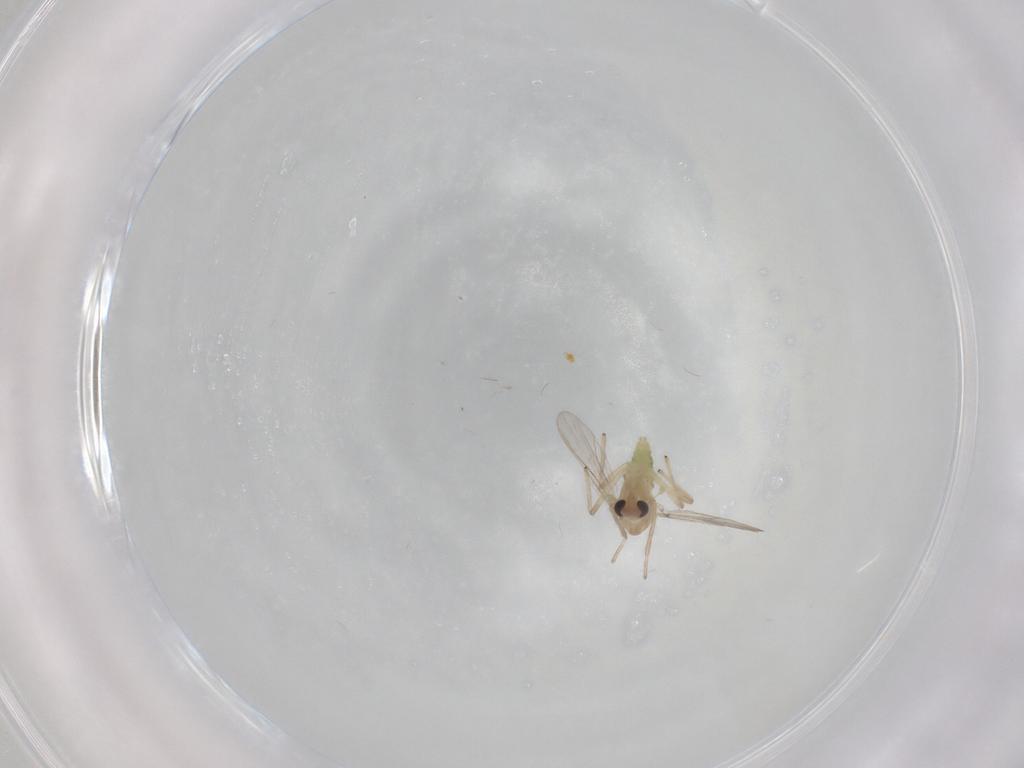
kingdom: Animalia
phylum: Arthropoda
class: Insecta
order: Diptera
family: Chironomidae
